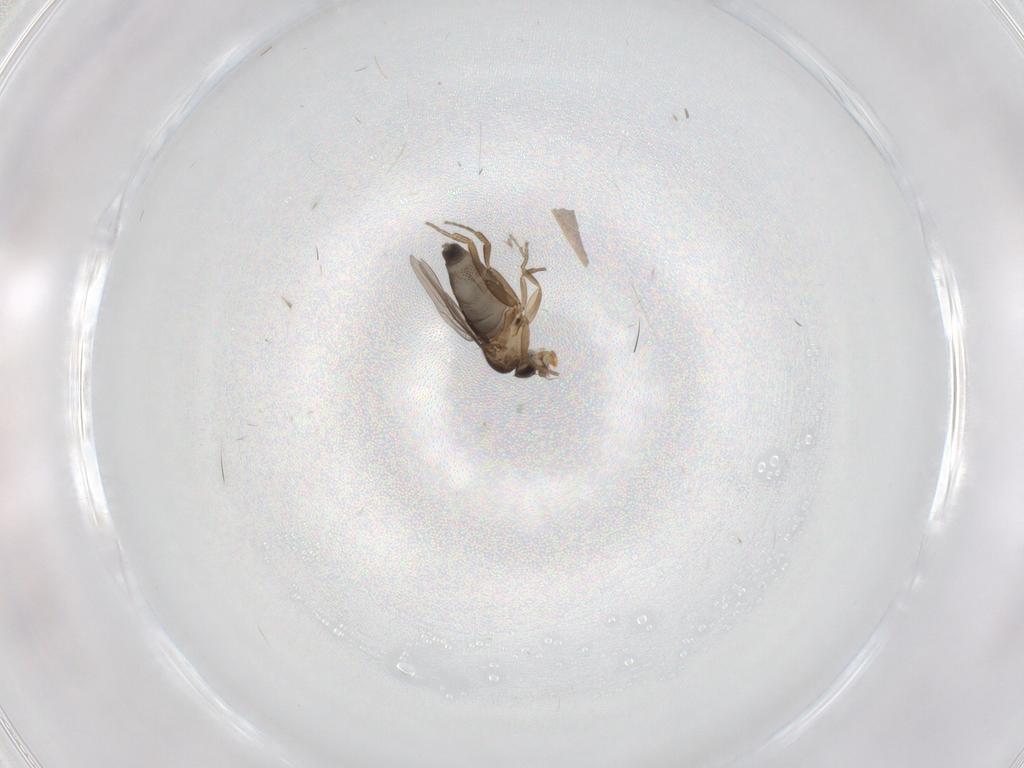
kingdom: Animalia
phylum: Arthropoda
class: Insecta
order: Diptera
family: Phoridae
